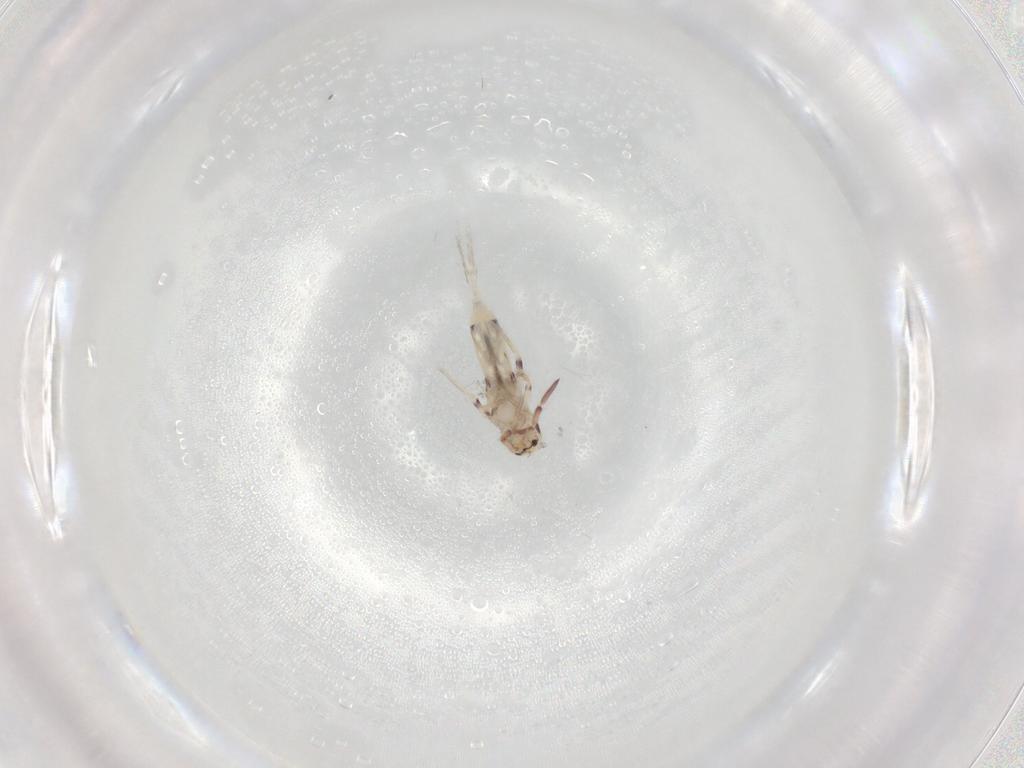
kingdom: Animalia
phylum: Arthropoda
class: Collembola
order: Entomobryomorpha
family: Entomobryidae
